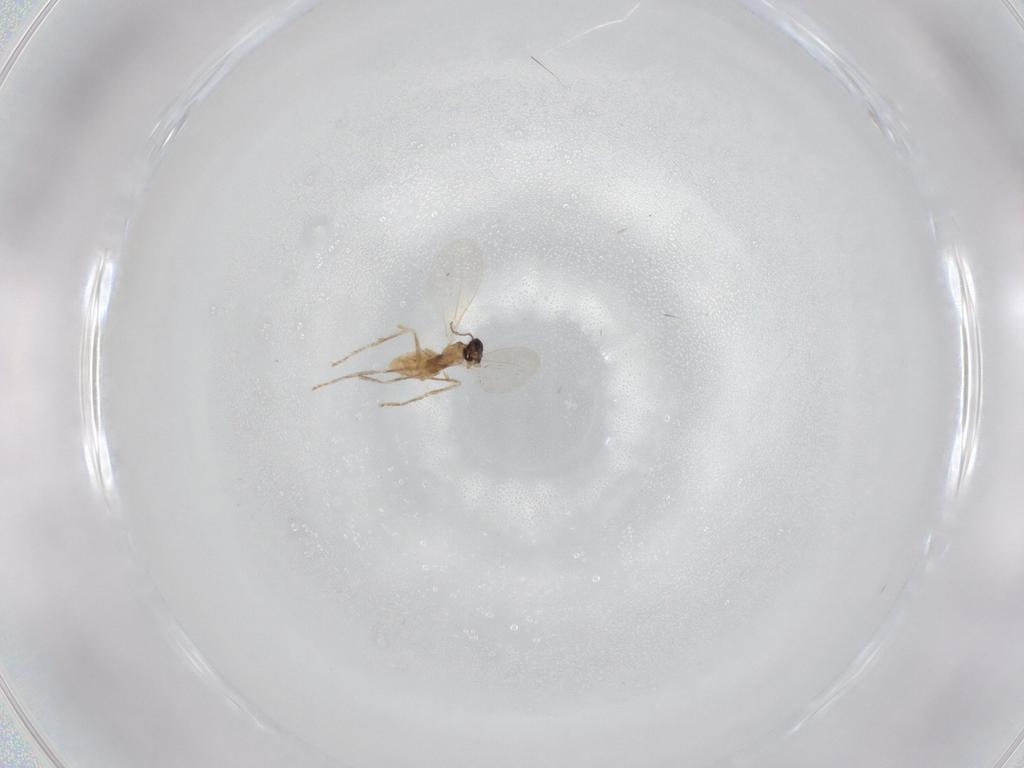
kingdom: Animalia
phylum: Arthropoda
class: Insecta
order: Diptera
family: Cecidomyiidae
